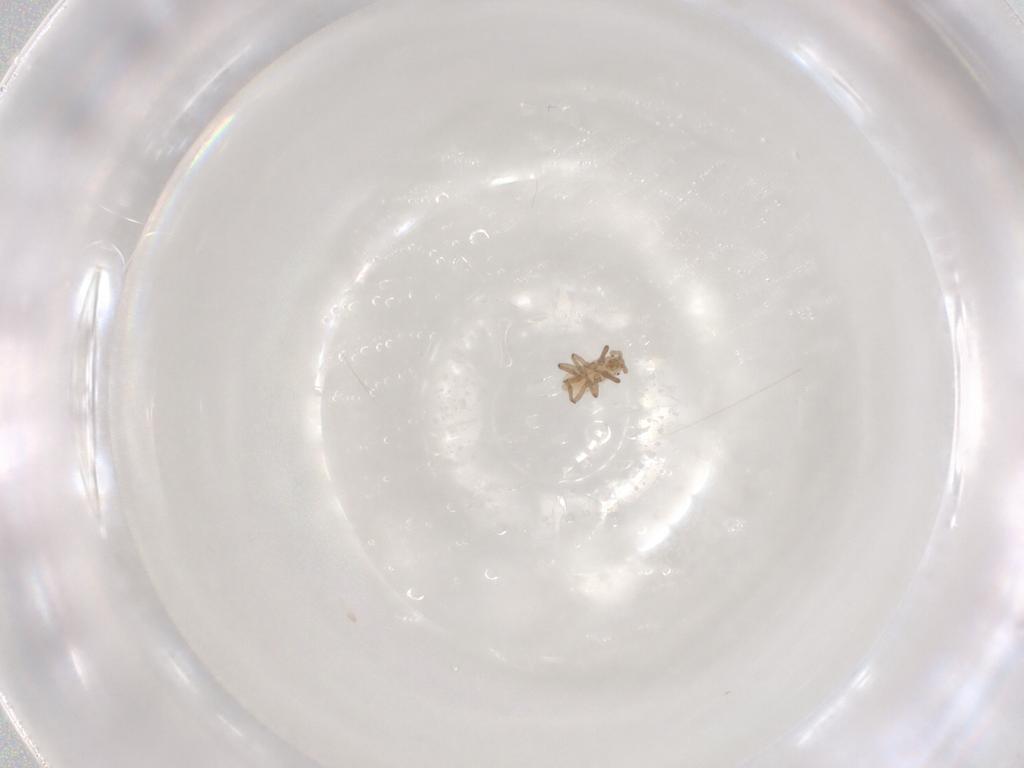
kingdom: Animalia
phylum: Arthropoda
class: Insecta
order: Hemiptera
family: Aphididae
